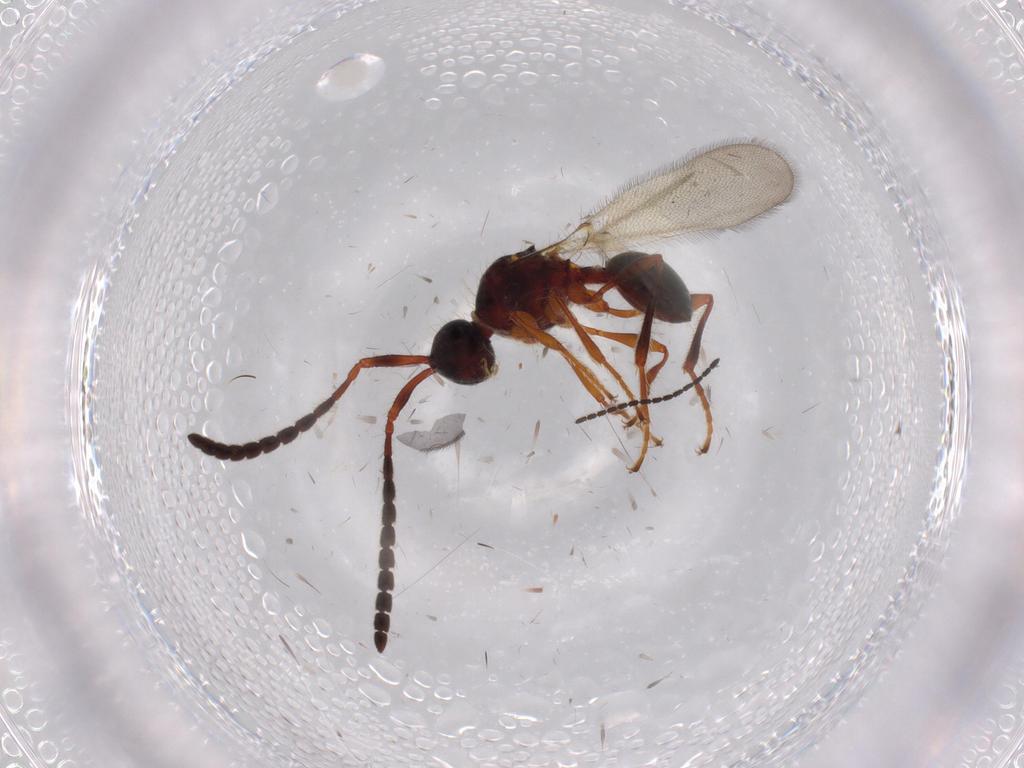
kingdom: Animalia
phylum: Arthropoda
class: Insecta
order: Hymenoptera
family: Diapriidae
